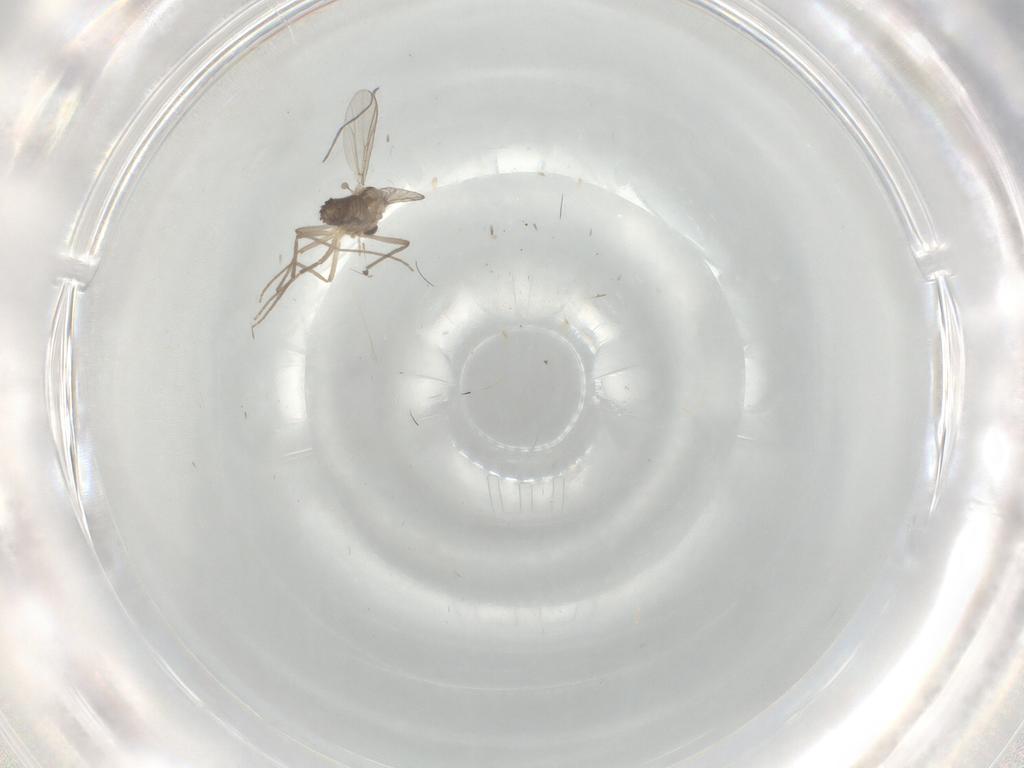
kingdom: Animalia
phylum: Arthropoda
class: Insecta
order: Diptera
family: Chironomidae
